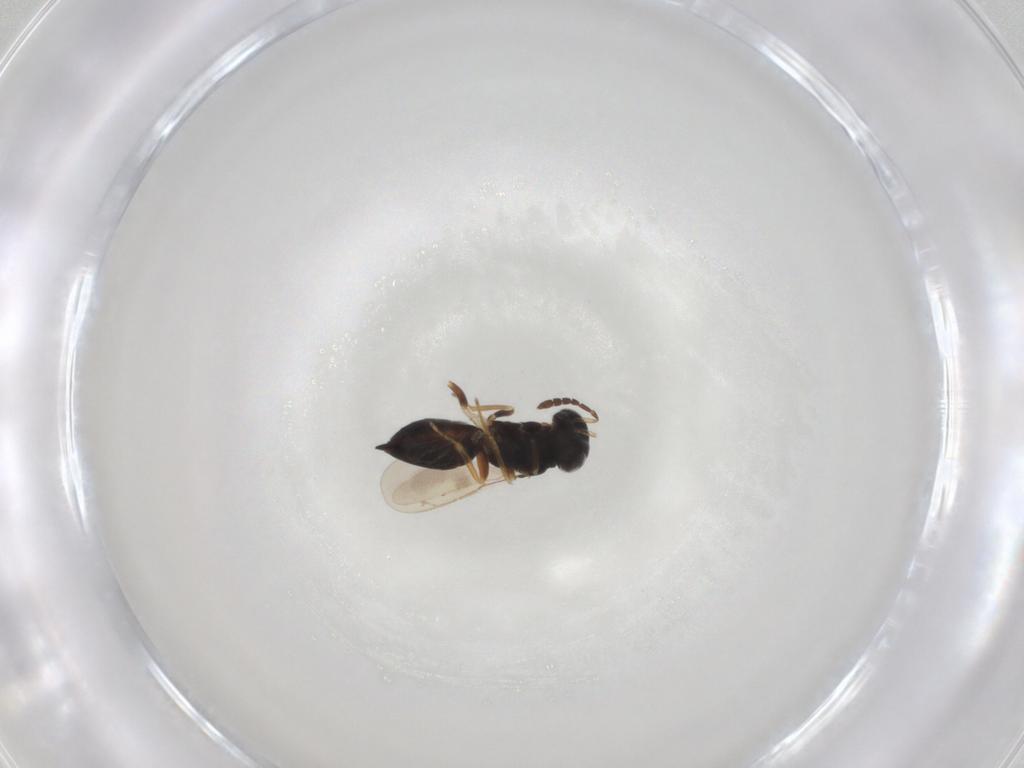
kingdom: Animalia
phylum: Arthropoda
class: Insecta
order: Hymenoptera
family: Eulophidae
